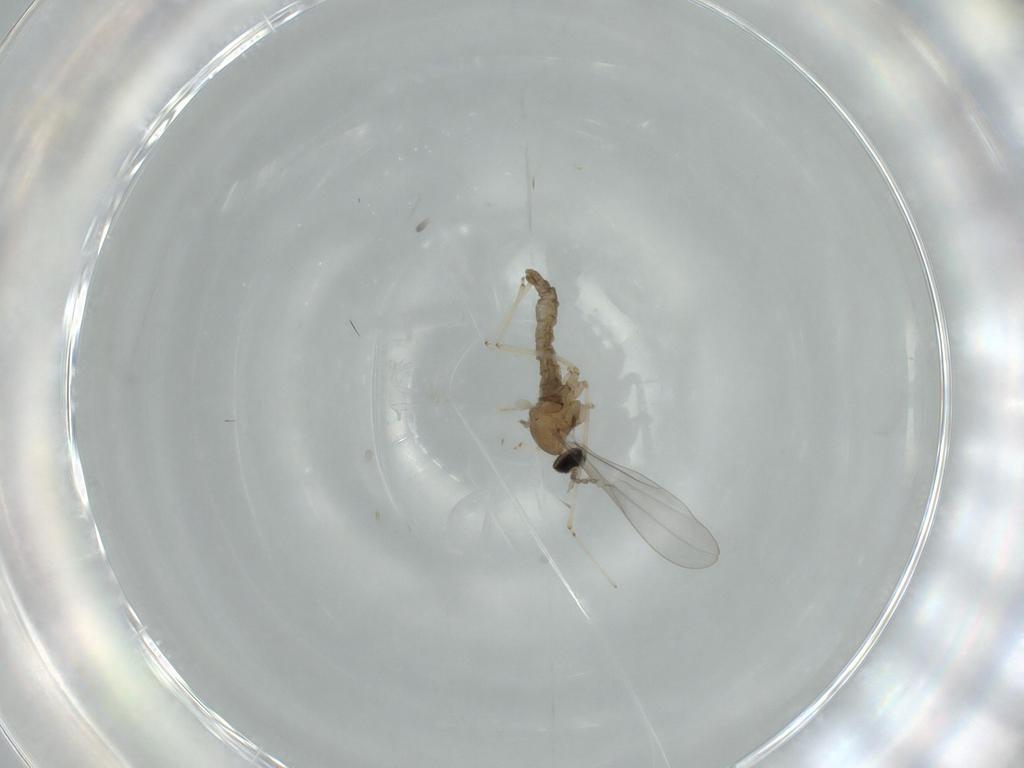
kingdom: Animalia
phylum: Arthropoda
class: Insecta
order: Diptera
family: Cecidomyiidae
